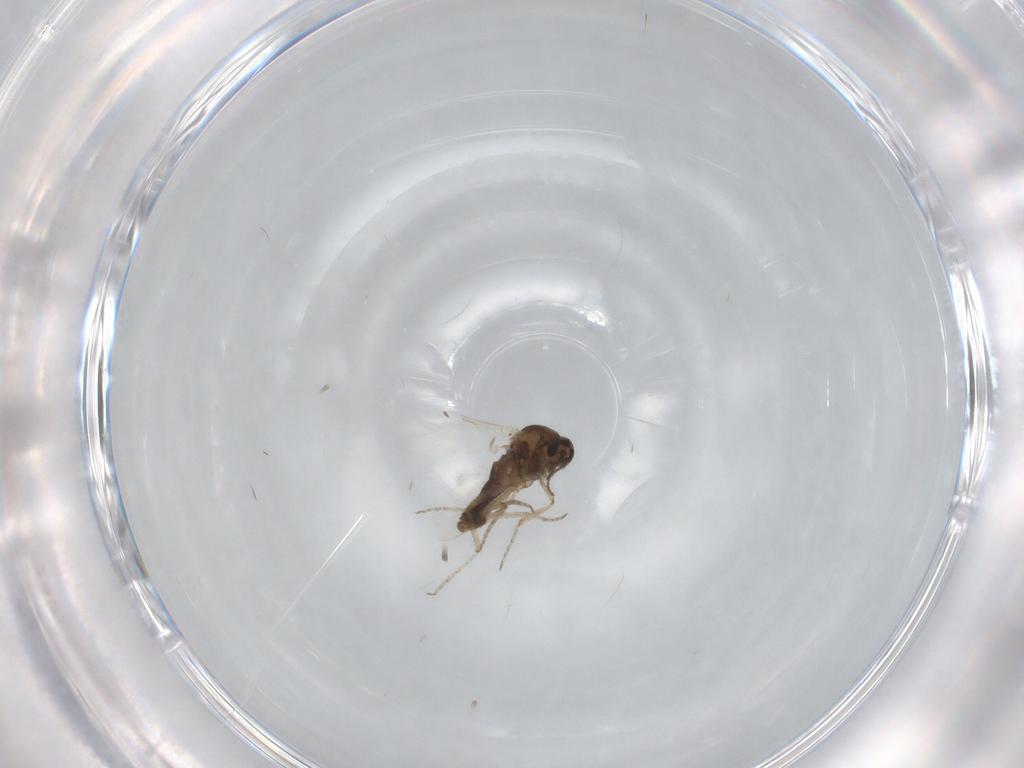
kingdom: Animalia
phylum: Arthropoda
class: Insecta
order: Diptera
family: Ceratopogonidae
